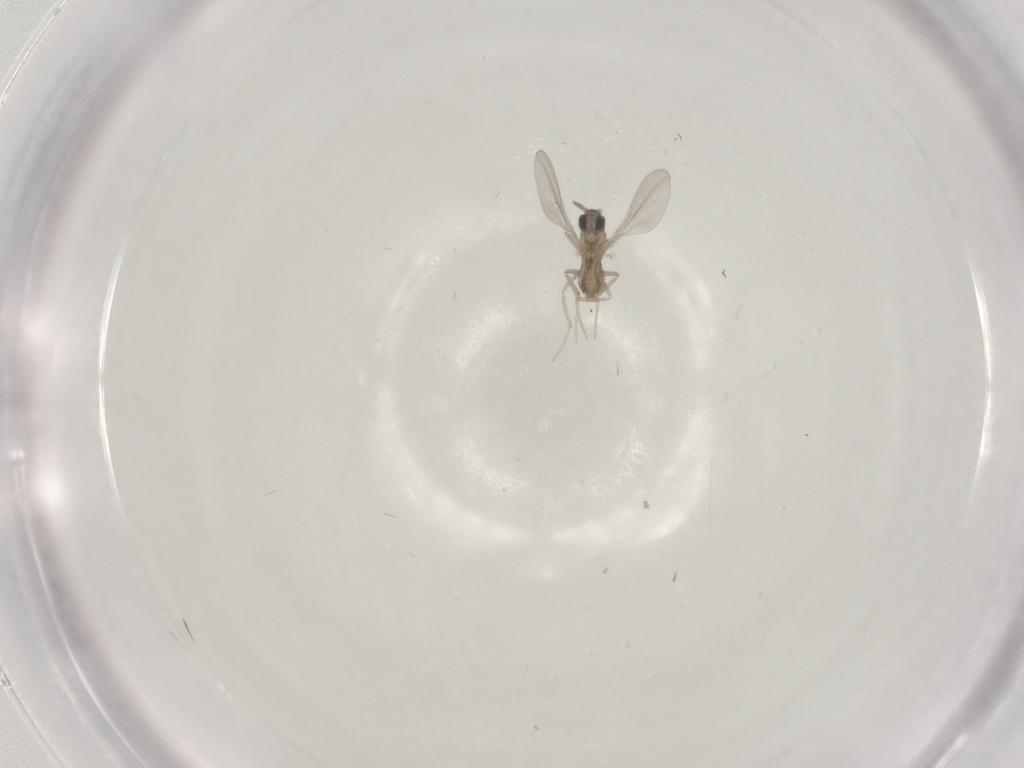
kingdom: Animalia
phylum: Arthropoda
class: Insecta
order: Diptera
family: Cecidomyiidae
